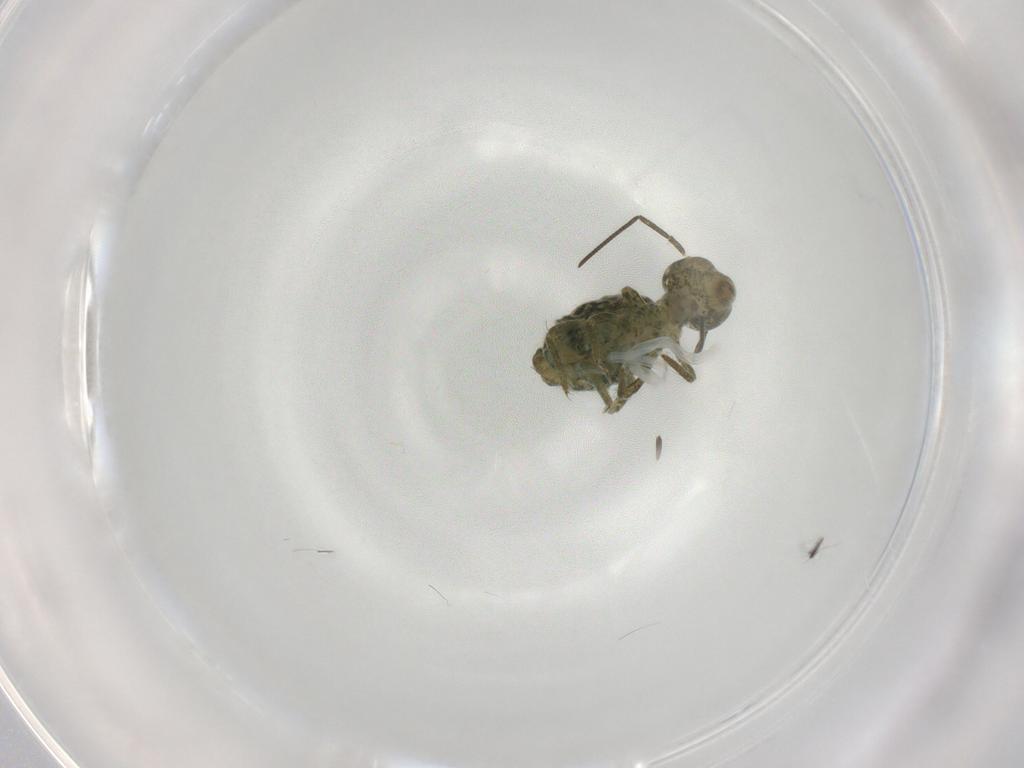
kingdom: Animalia
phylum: Arthropoda
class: Collembola
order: Symphypleona
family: Sminthuridae
